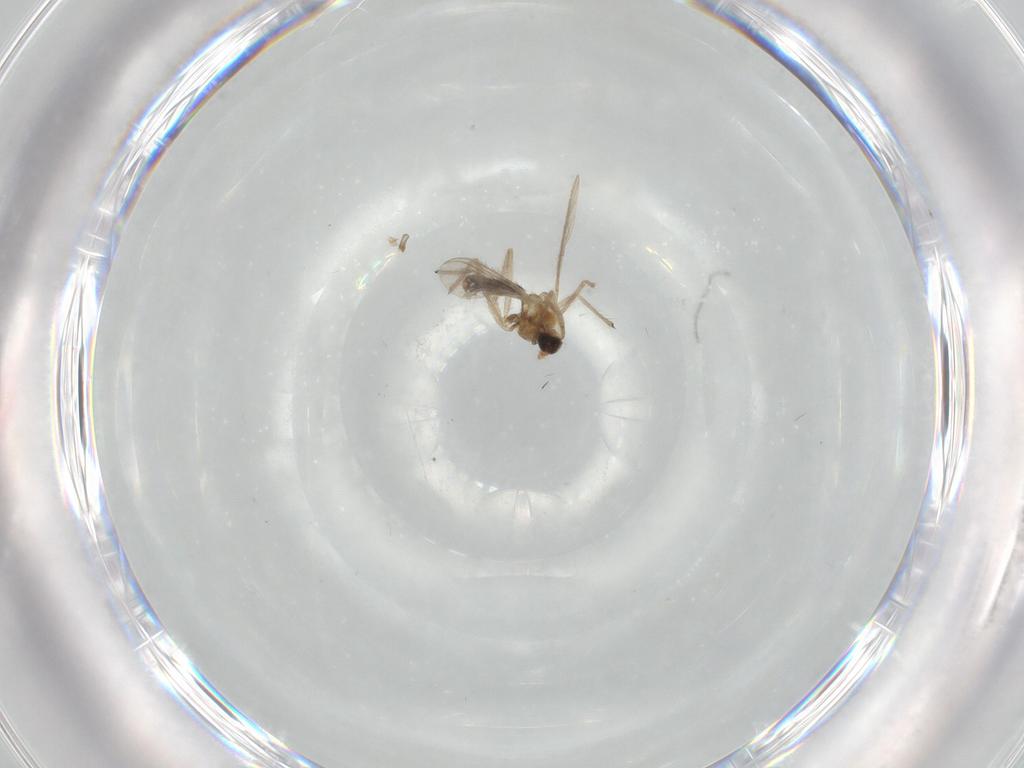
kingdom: Animalia
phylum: Arthropoda
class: Insecta
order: Diptera
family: Chironomidae
